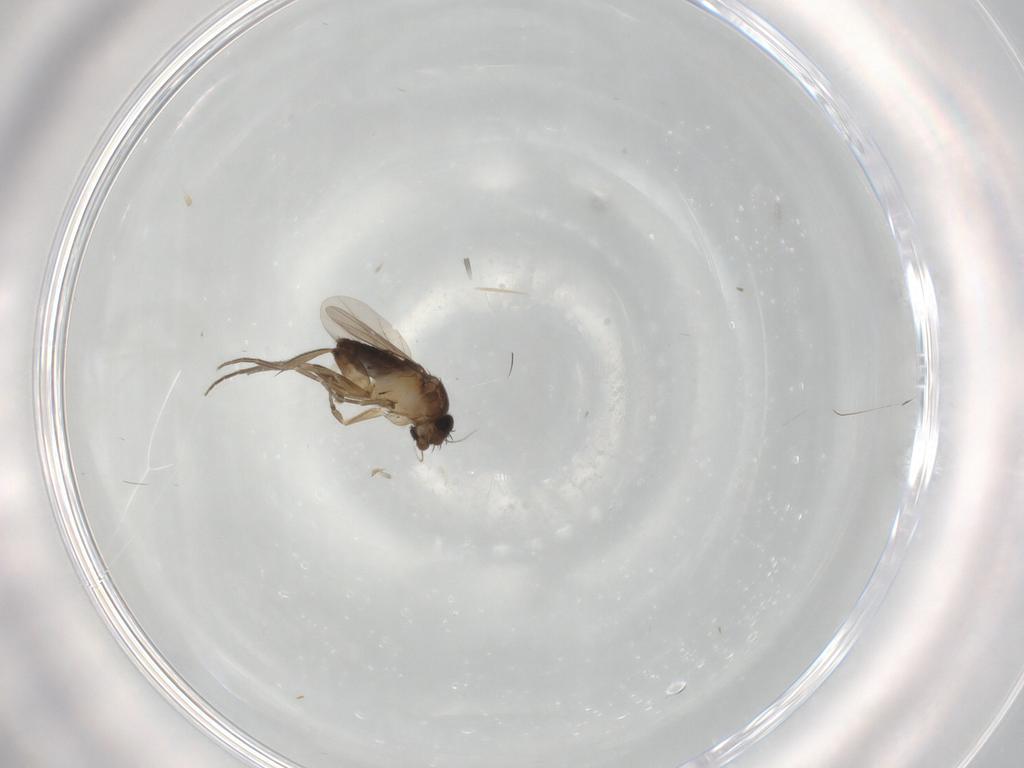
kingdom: Animalia
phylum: Arthropoda
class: Insecta
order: Diptera
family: Phoridae
